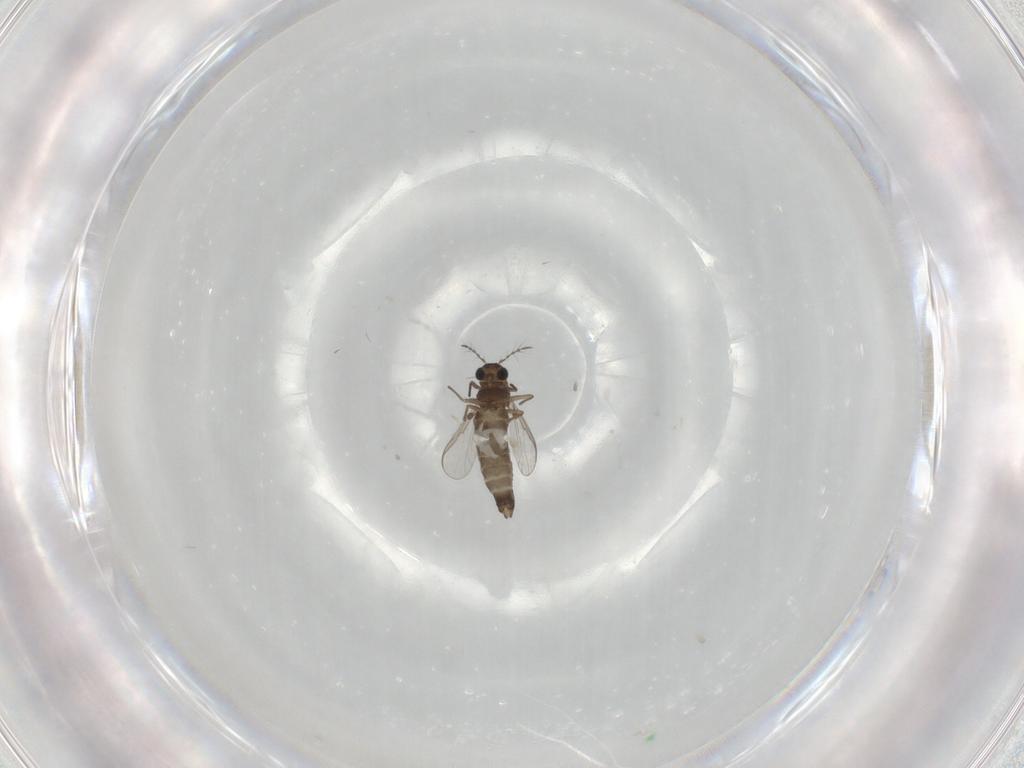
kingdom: Animalia
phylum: Arthropoda
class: Insecta
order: Diptera
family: Chironomidae
